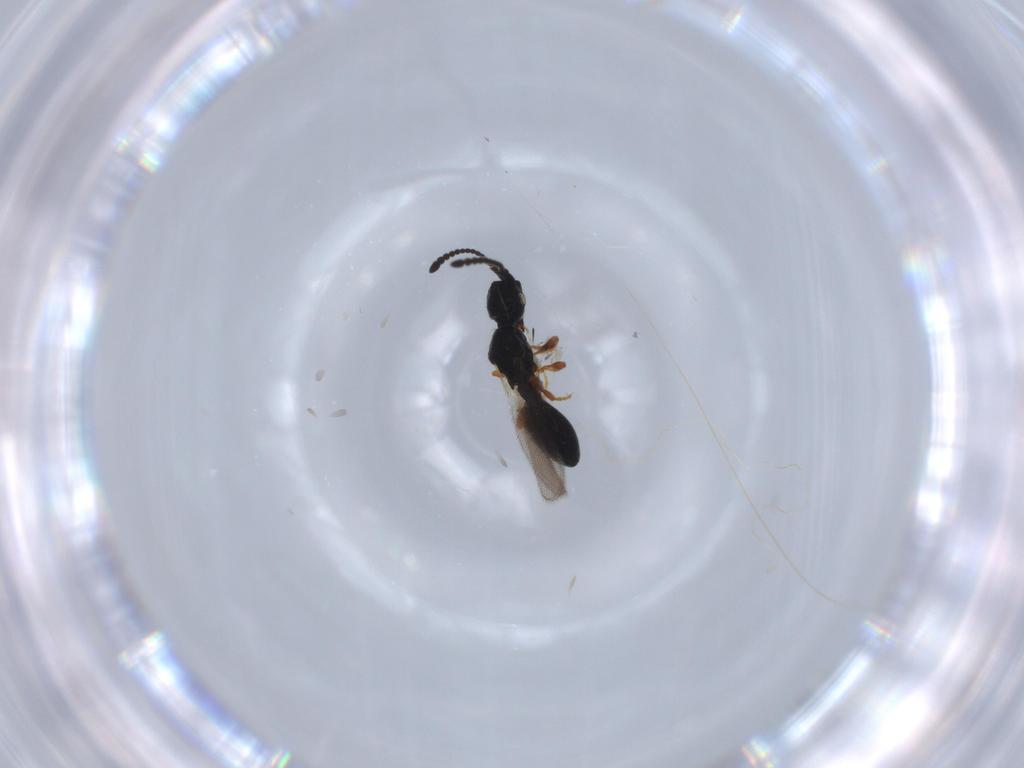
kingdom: Animalia
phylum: Arthropoda
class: Insecta
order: Hymenoptera
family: Diapriidae
